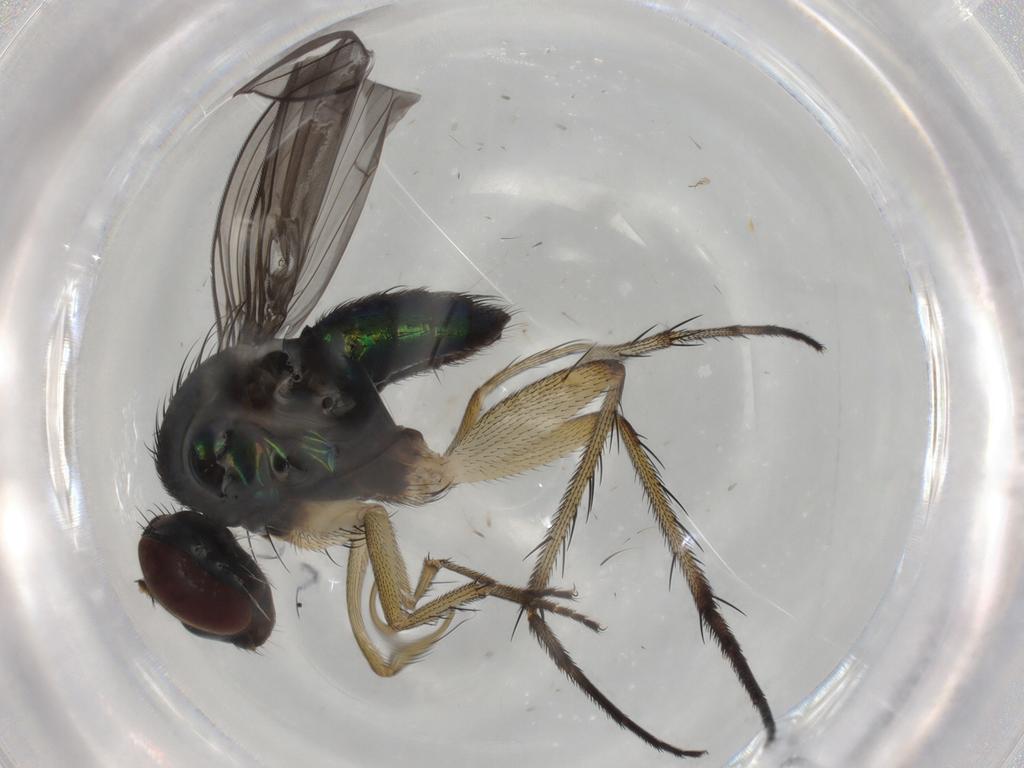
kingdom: Animalia
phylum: Arthropoda
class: Insecta
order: Diptera
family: Dolichopodidae
